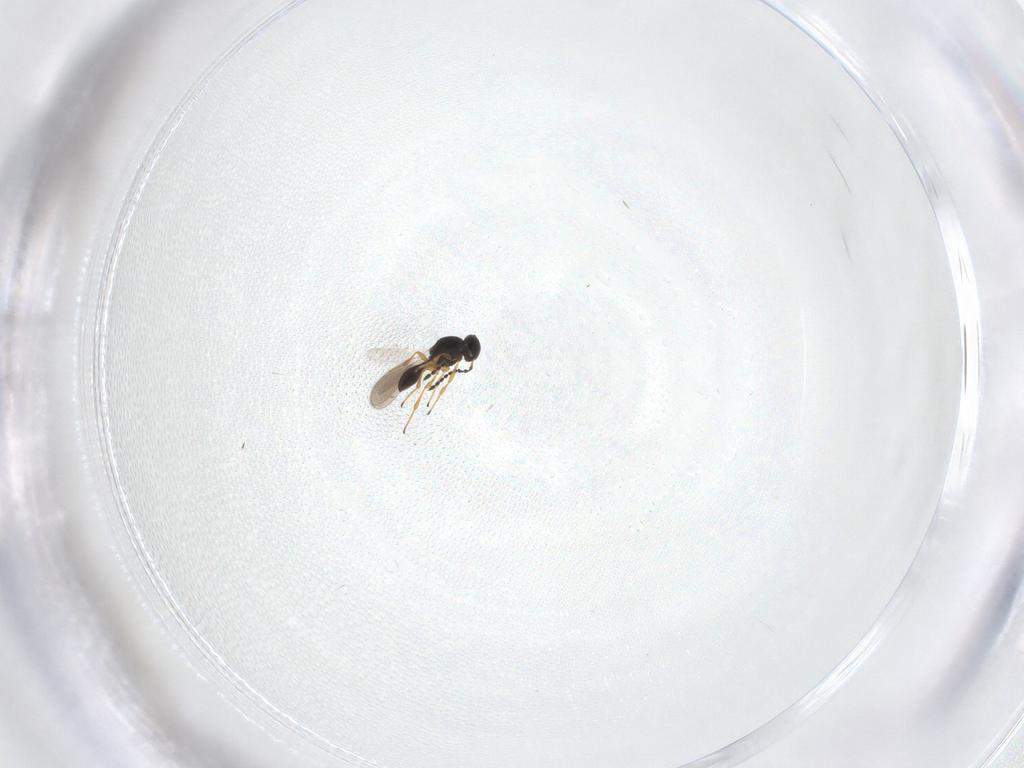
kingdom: Animalia
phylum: Arthropoda
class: Insecta
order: Hymenoptera
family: Platygastridae
